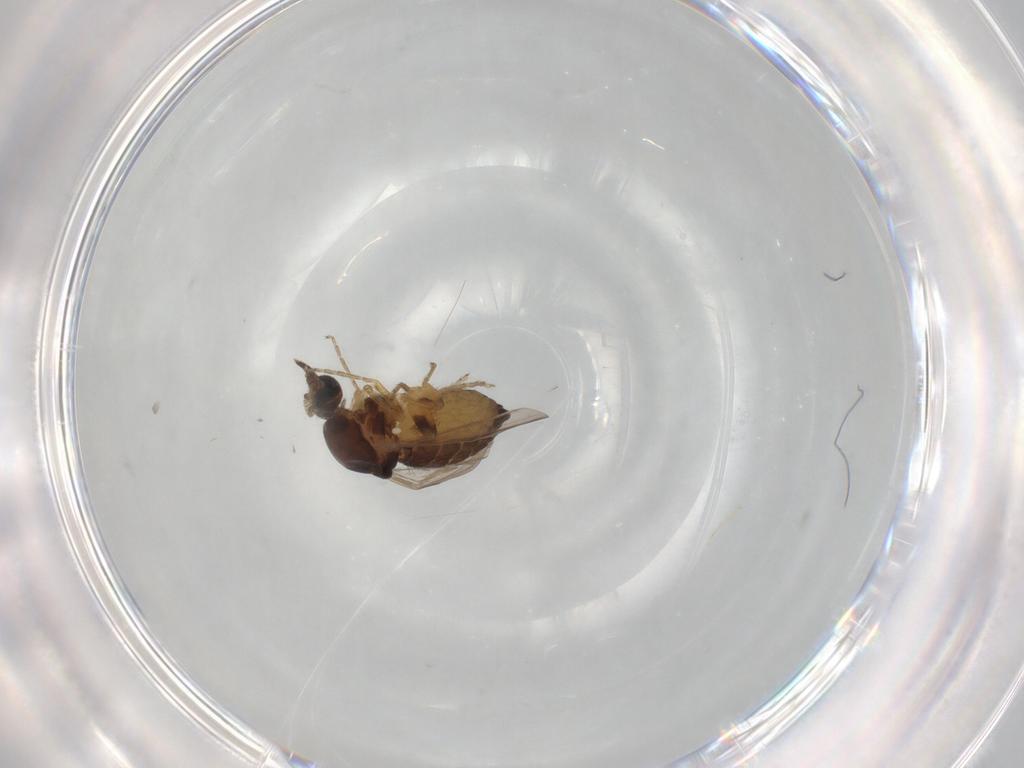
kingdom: Animalia
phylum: Arthropoda
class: Insecta
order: Diptera
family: Ceratopogonidae
